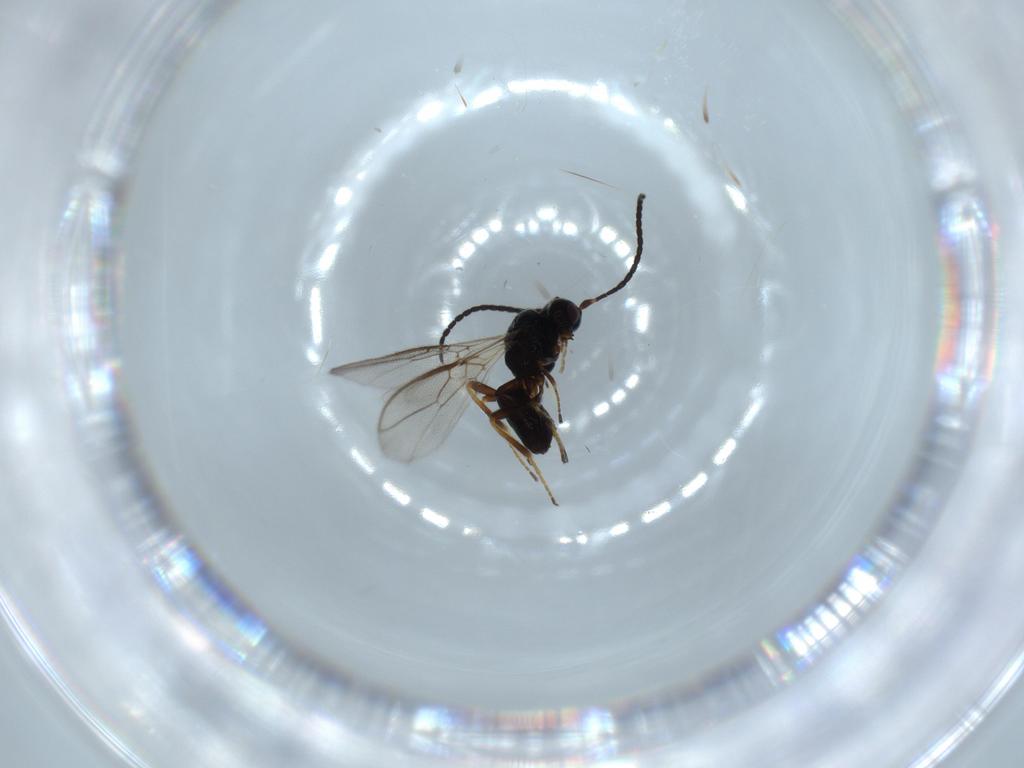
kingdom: Animalia
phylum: Arthropoda
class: Insecta
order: Hymenoptera
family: Braconidae
